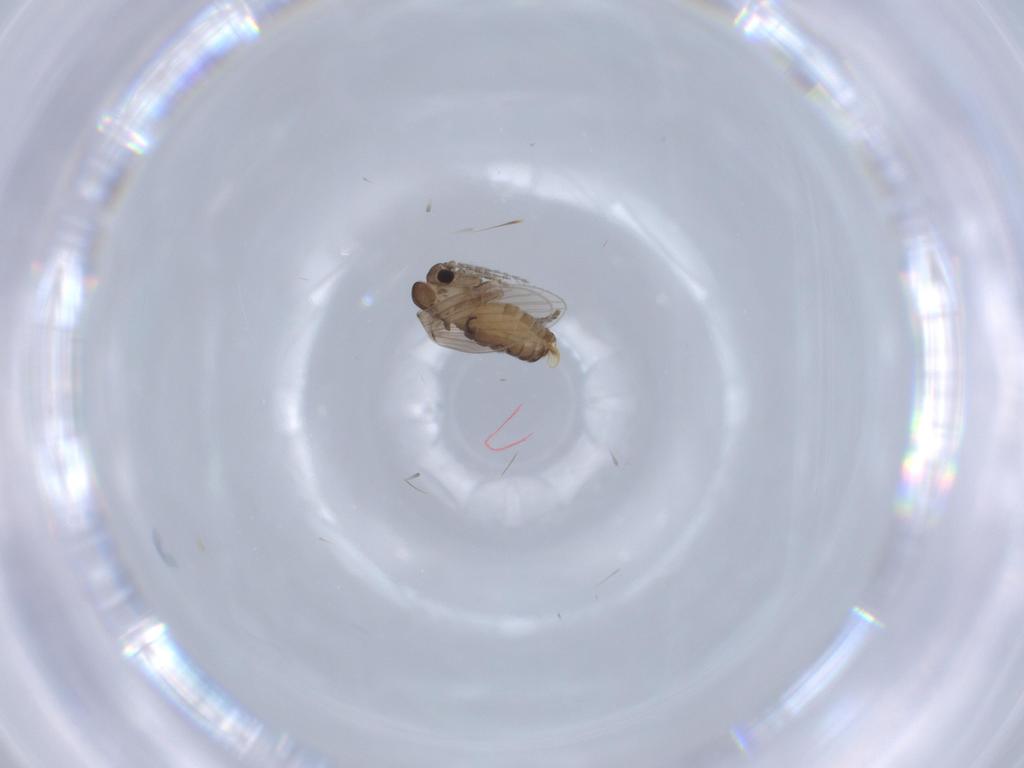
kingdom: Animalia
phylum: Arthropoda
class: Insecta
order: Diptera
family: Psychodidae
